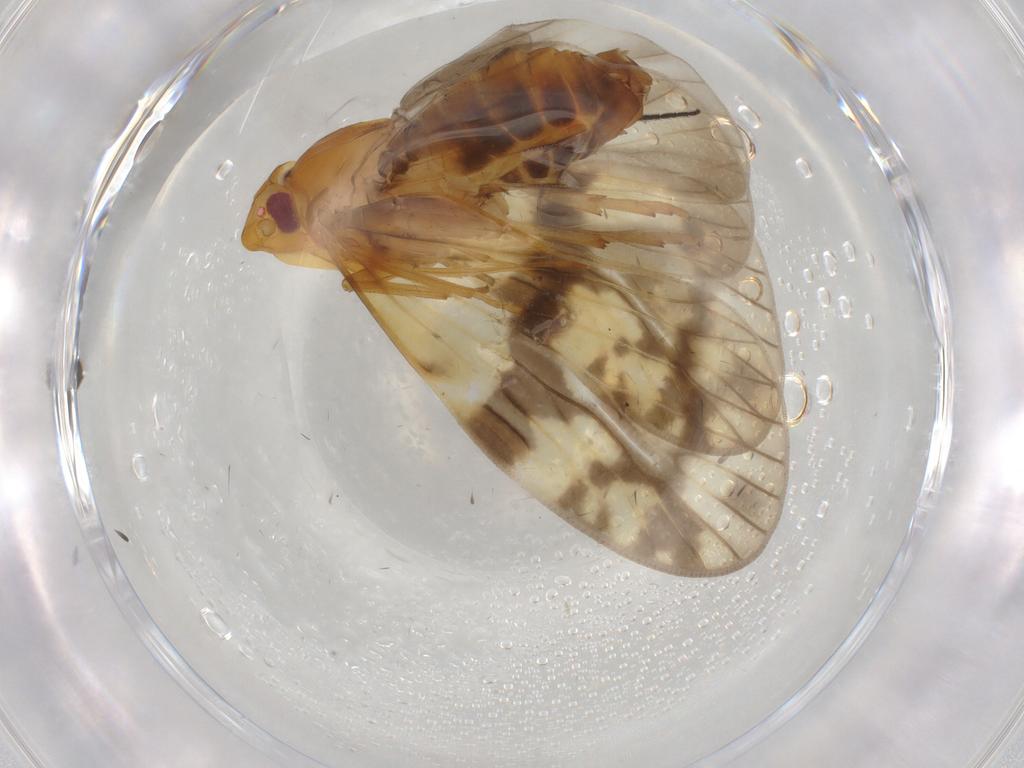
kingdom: Animalia
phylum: Arthropoda
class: Insecta
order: Hemiptera
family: Cixiidae
